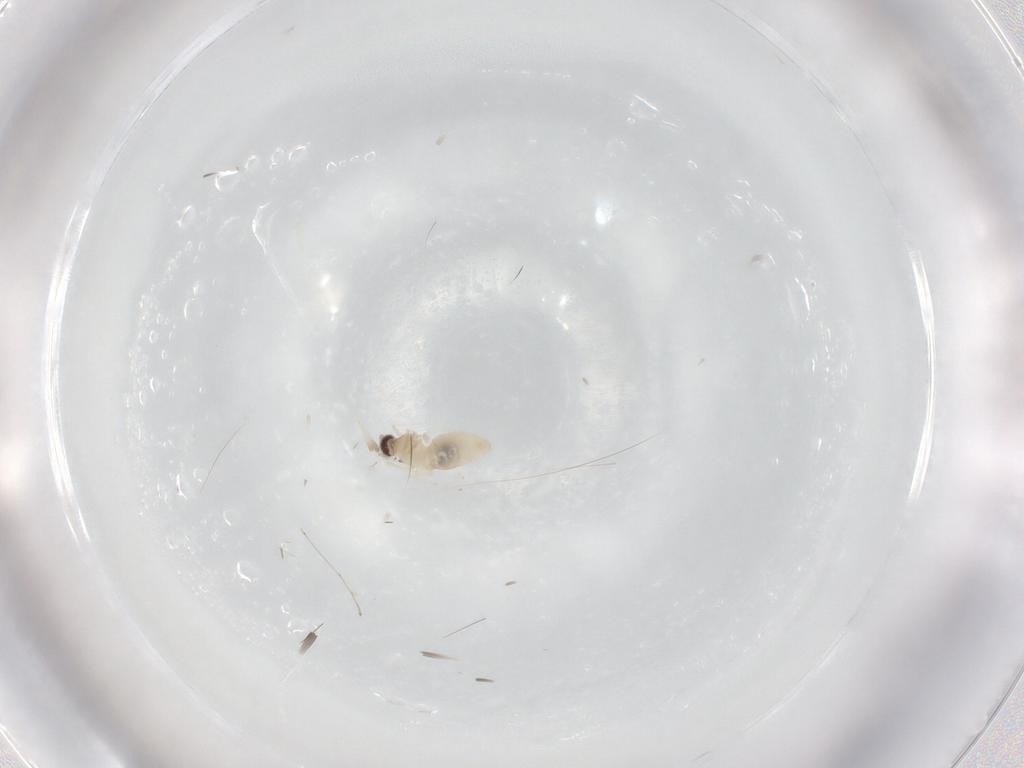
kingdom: Animalia
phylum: Arthropoda
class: Insecta
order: Diptera
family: Cecidomyiidae
